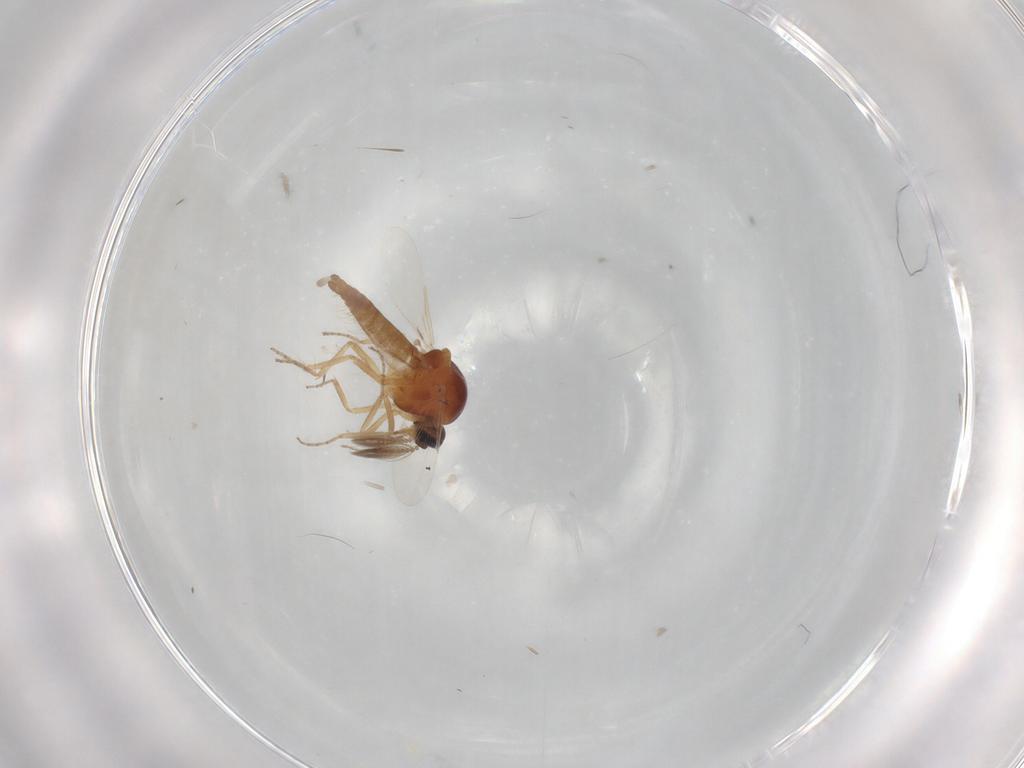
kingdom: Animalia
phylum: Arthropoda
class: Insecta
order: Diptera
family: Ceratopogonidae
